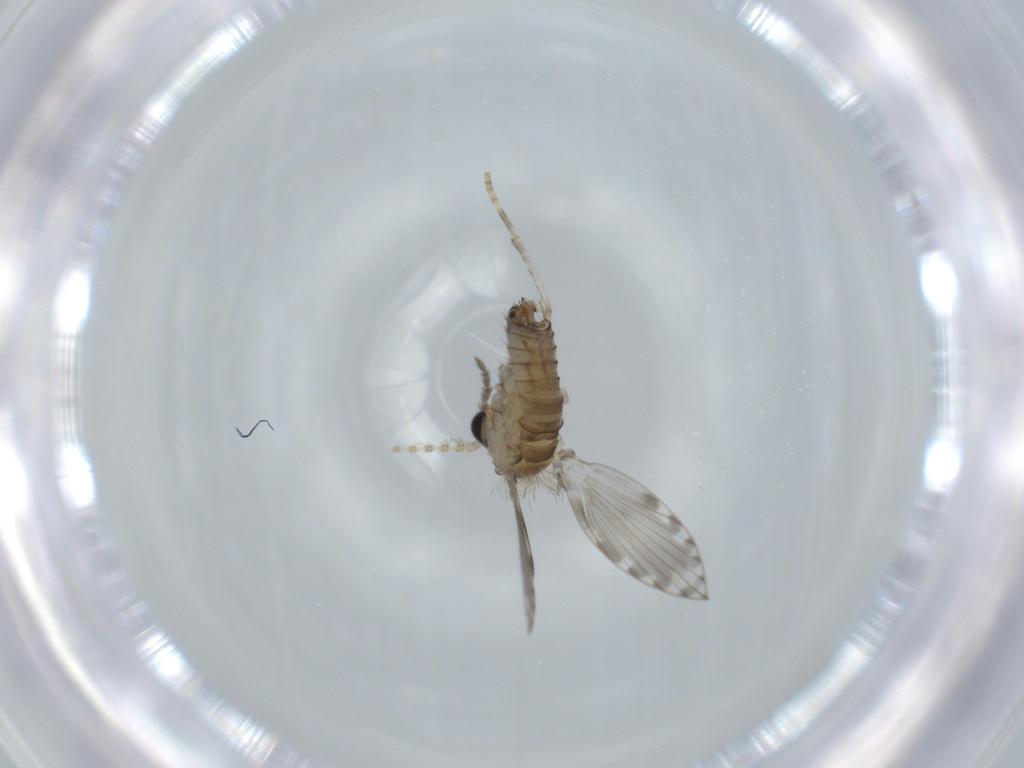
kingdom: Animalia
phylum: Arthropoda
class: Insecta
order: Diptera
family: Psychodidae
